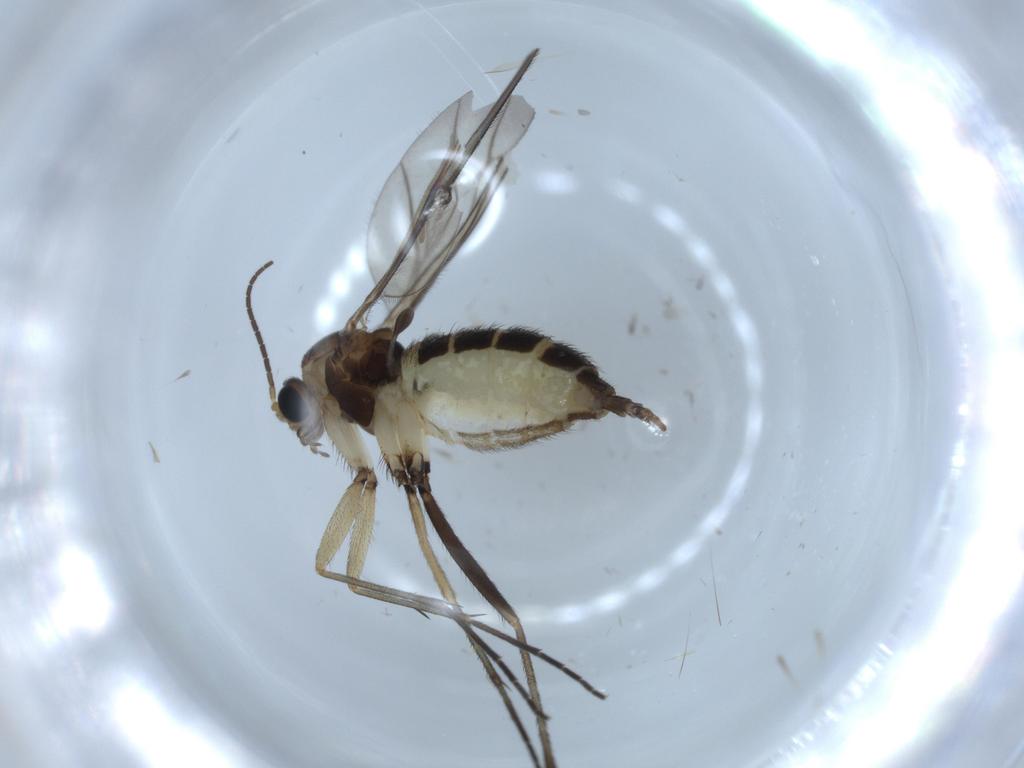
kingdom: Animalia
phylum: Arthropoda
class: Insecta
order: Diptera
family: Sciaridae
